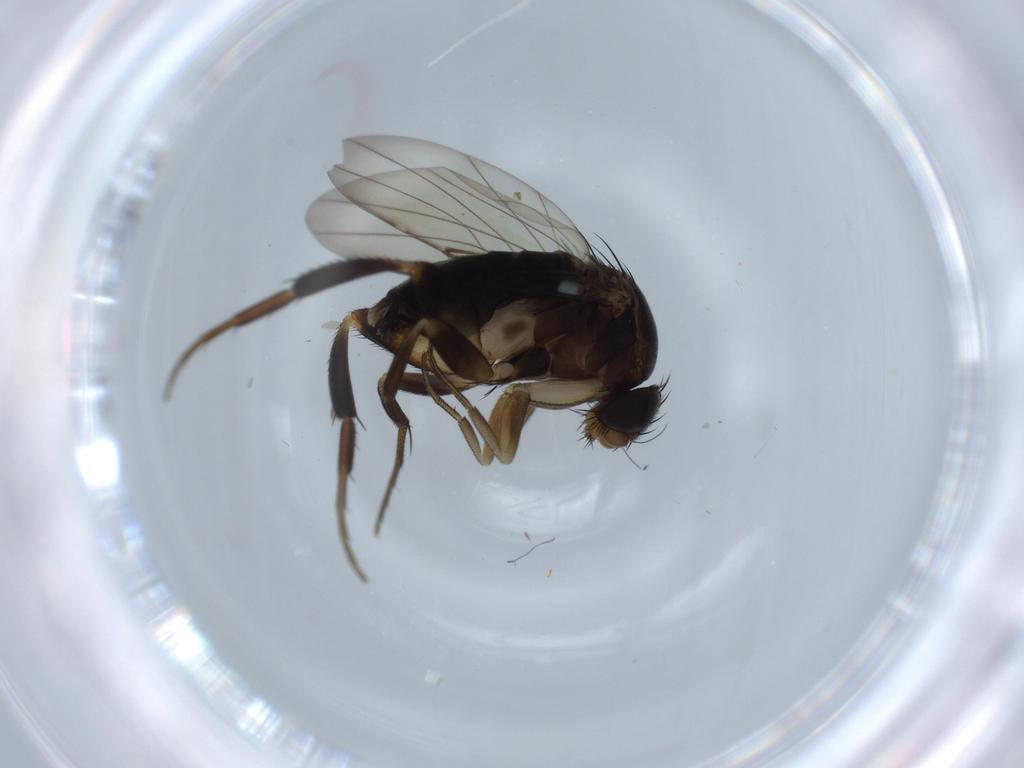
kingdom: Animalia
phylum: Arthropoda
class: Insecta
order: Diptera
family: Phoridae
